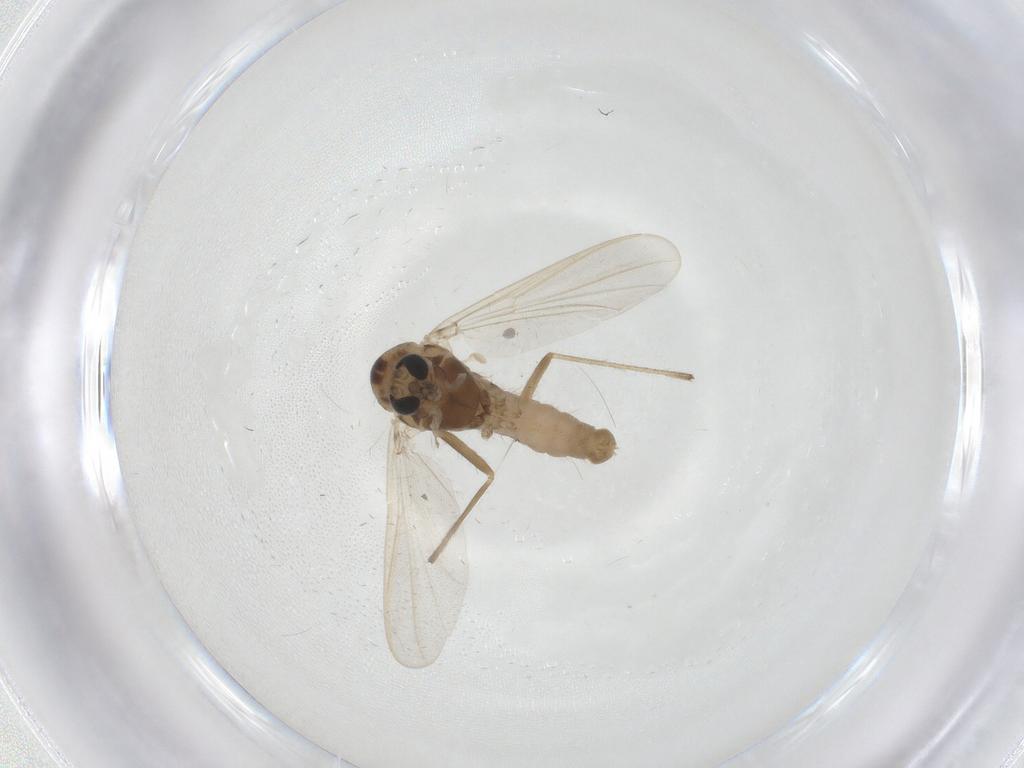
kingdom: Animalia
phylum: Arthropoda
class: Insecta
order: Diptera
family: Chironomidae
